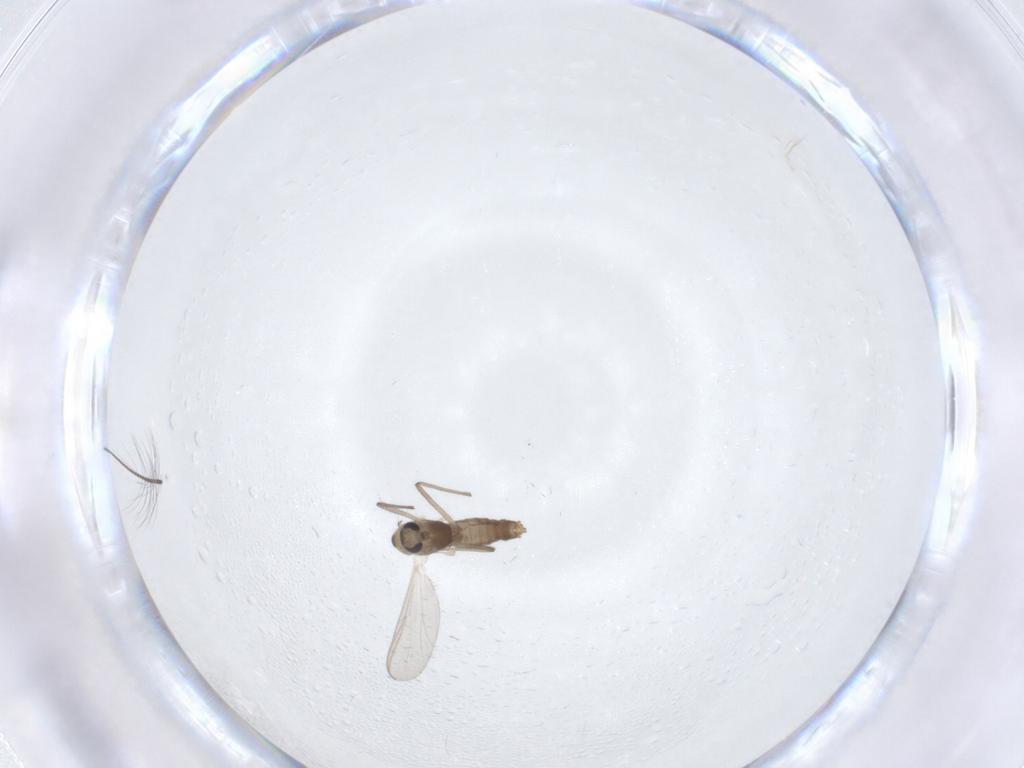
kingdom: Animalia
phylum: Arthropoda
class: Insecta
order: Diptera
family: Chironomidae
